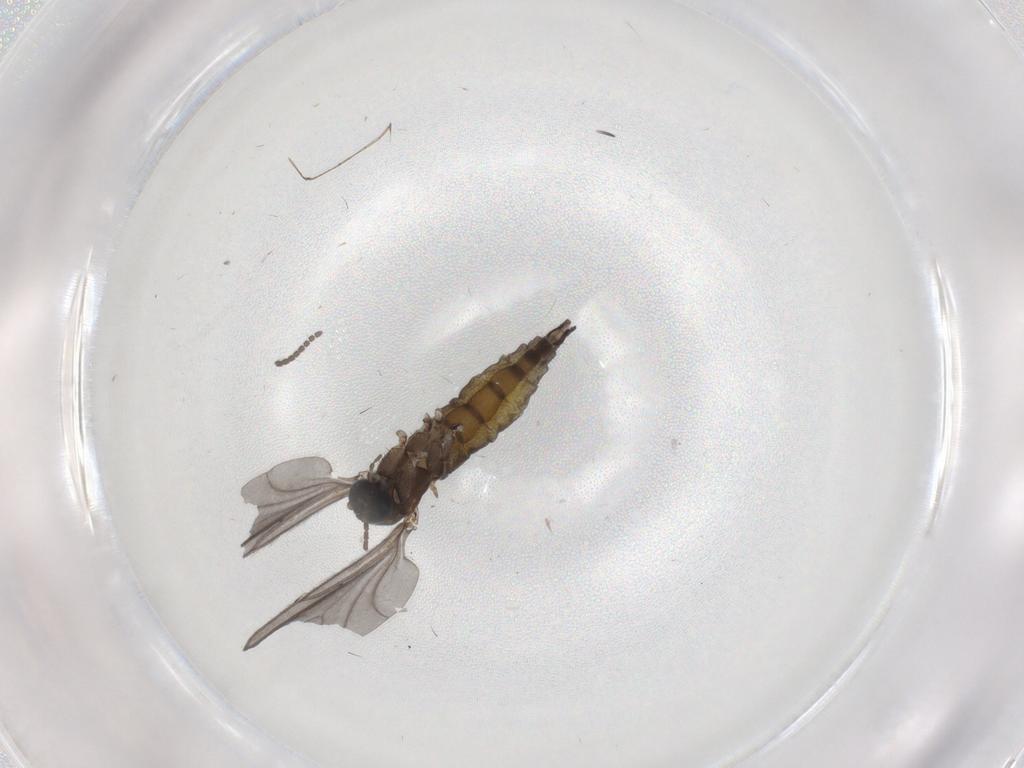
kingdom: Animalia
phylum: Arthropoda
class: Insecta
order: Diptera
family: Sciaridae
